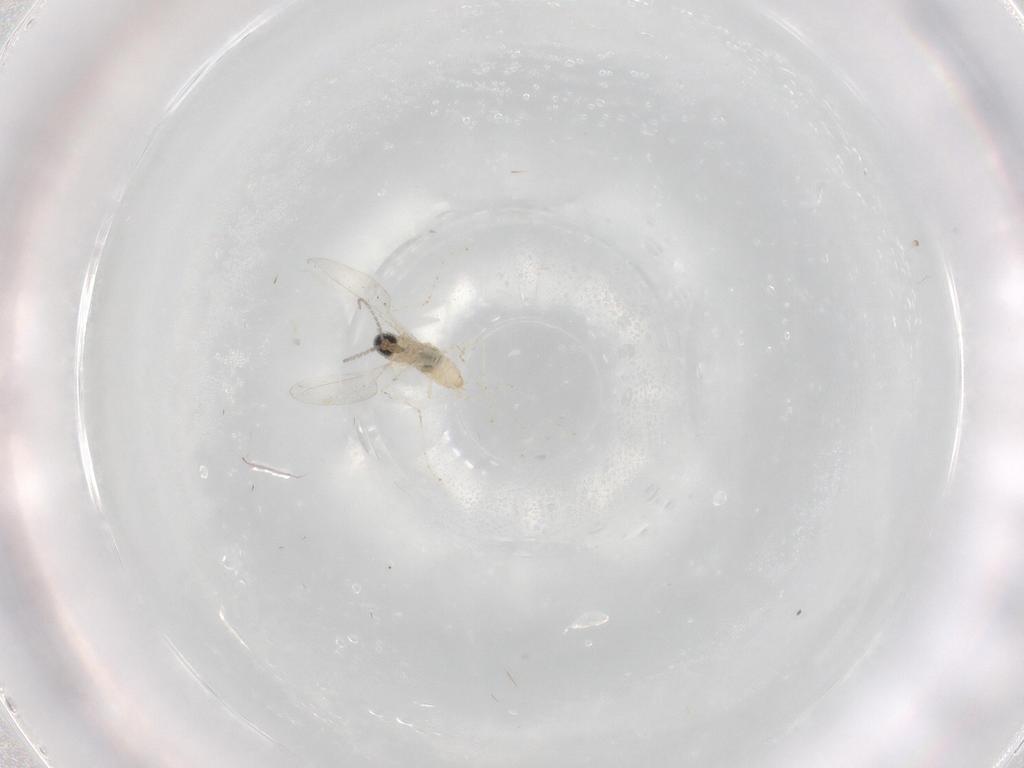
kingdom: Animalia
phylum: Arthropoda
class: Insecta
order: Diptera
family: Cecidomyiidae
